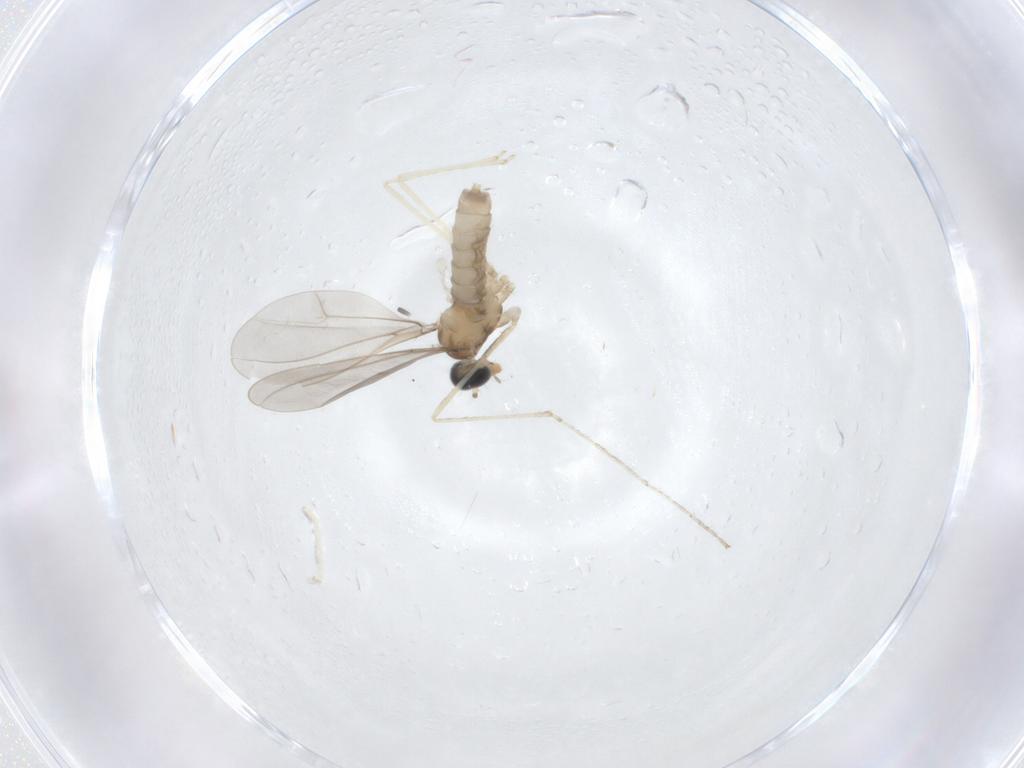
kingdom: Animalia
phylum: Arthropoda
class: Insecta
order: Diptera
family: Cecidomyiidae
